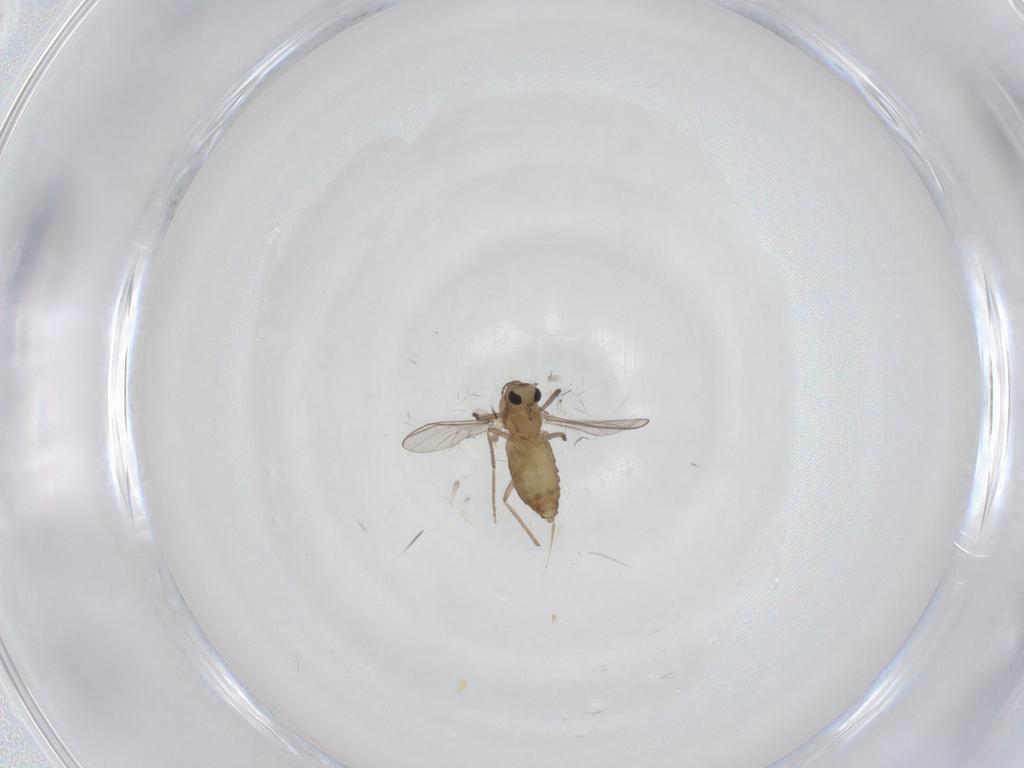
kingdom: Animalia
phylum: Arthropoda
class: Insecta
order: Diptera
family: Chironomidae
